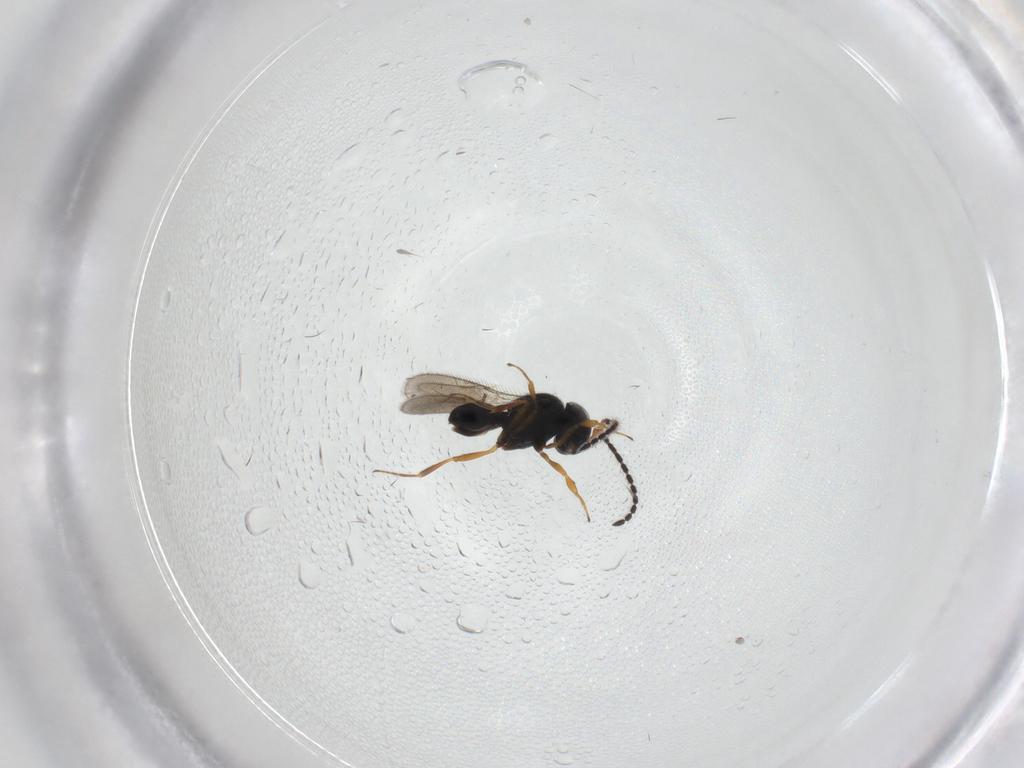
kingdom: Animalia
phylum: Arthropoda
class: Insecta
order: Hymenoptera
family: Scelionidae
